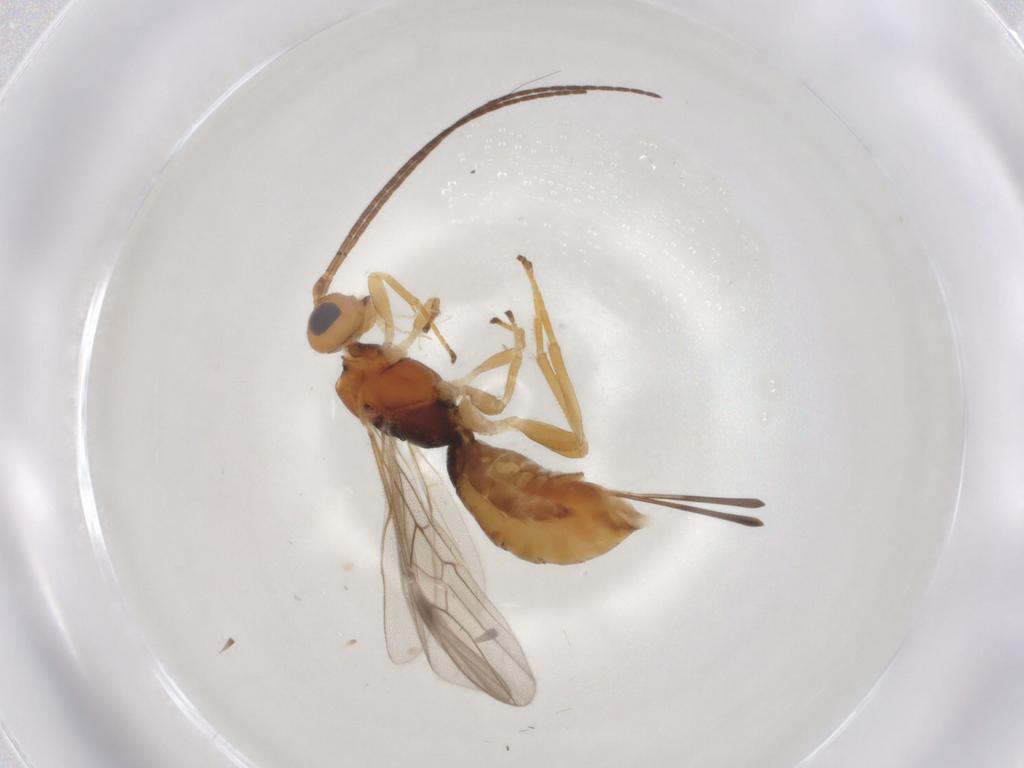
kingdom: Animalia
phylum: Arthropoda
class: Insecta
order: Hymenoptera
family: Braconidae
